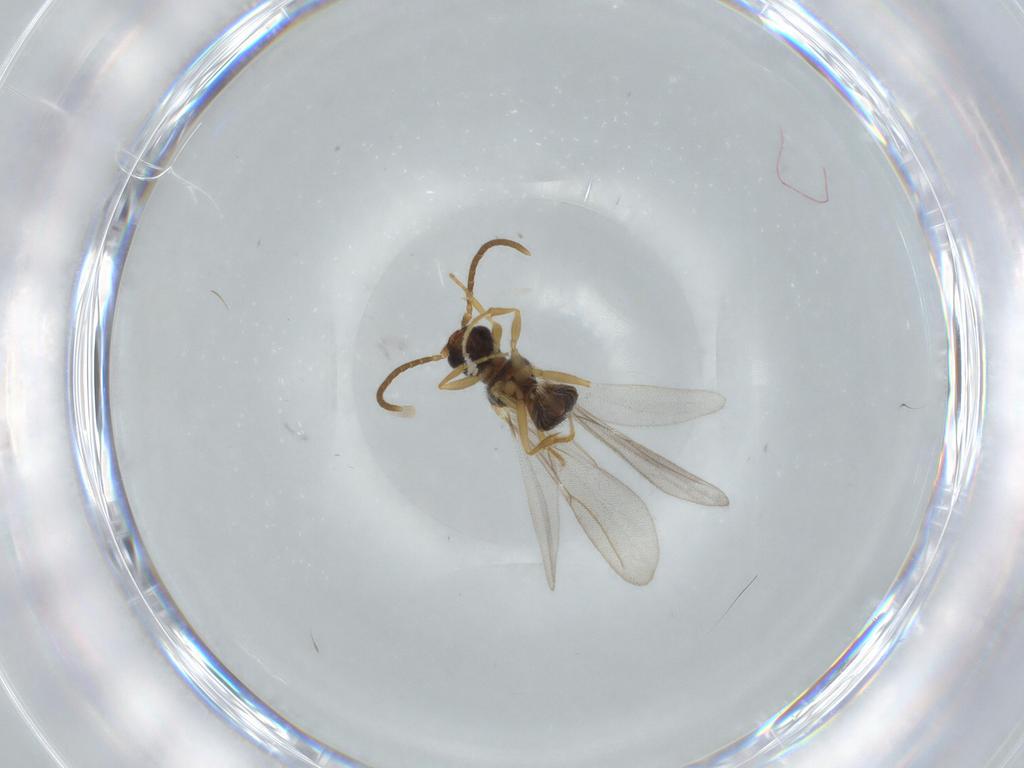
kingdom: Animalia
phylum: Arthropoda
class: Insecta
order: Hymenoptera
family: Bethylidae
